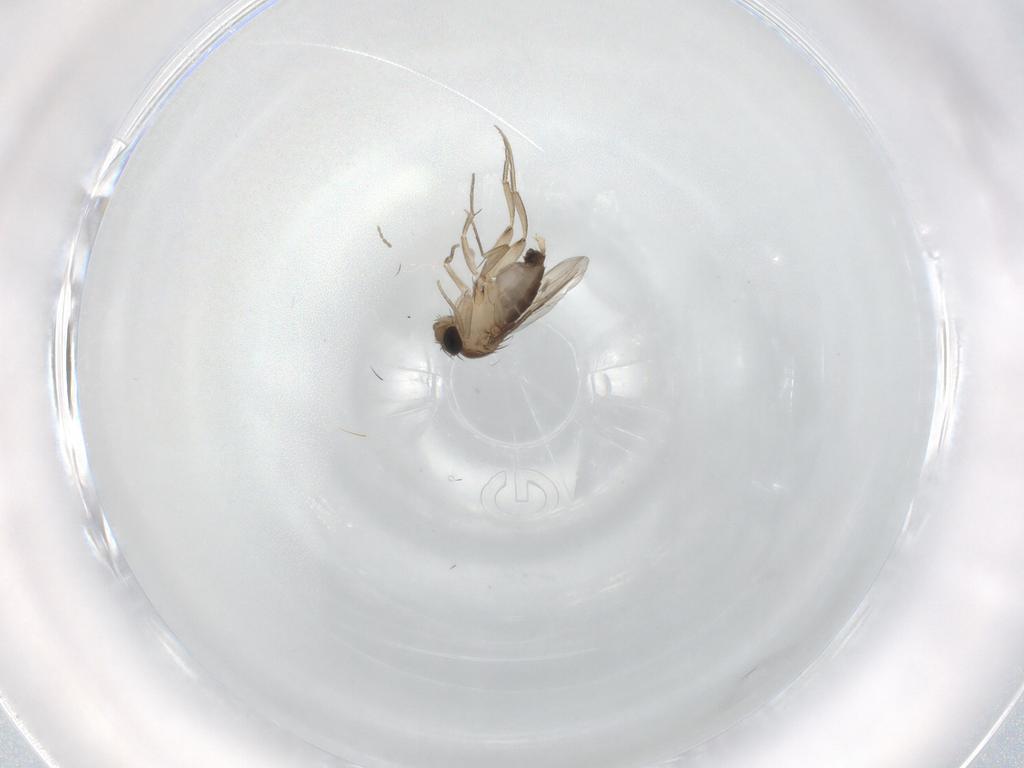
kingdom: Animalia
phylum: Arthropoda
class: Insecta
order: Diptera
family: Phoridae
